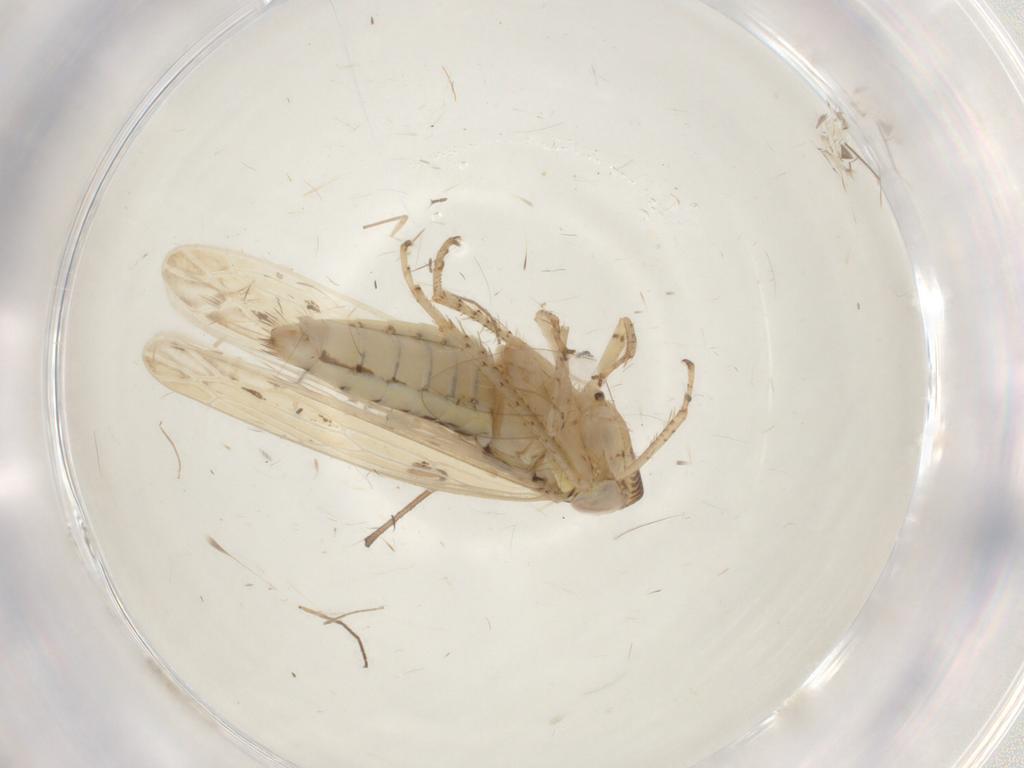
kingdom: Animalia
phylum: Arthropoda
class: Insecta
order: Hemiptera
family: Cicadellidae
